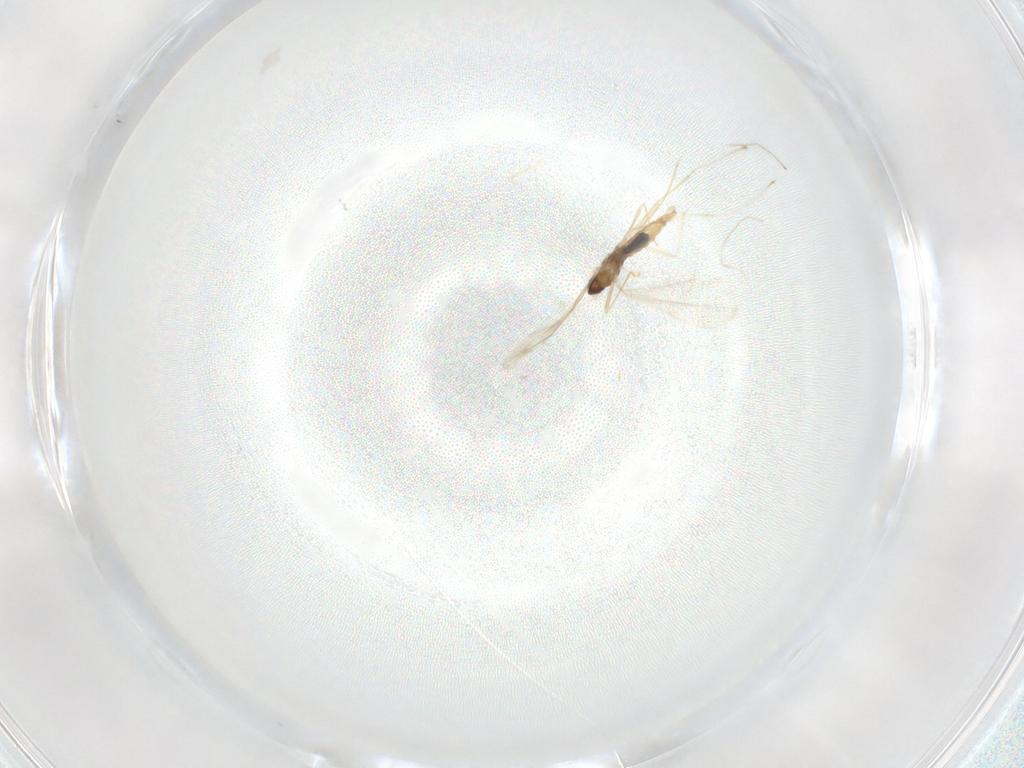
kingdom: Animalia
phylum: Arthropoda
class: Insecta
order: Diptera
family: Cecidomyiidae
